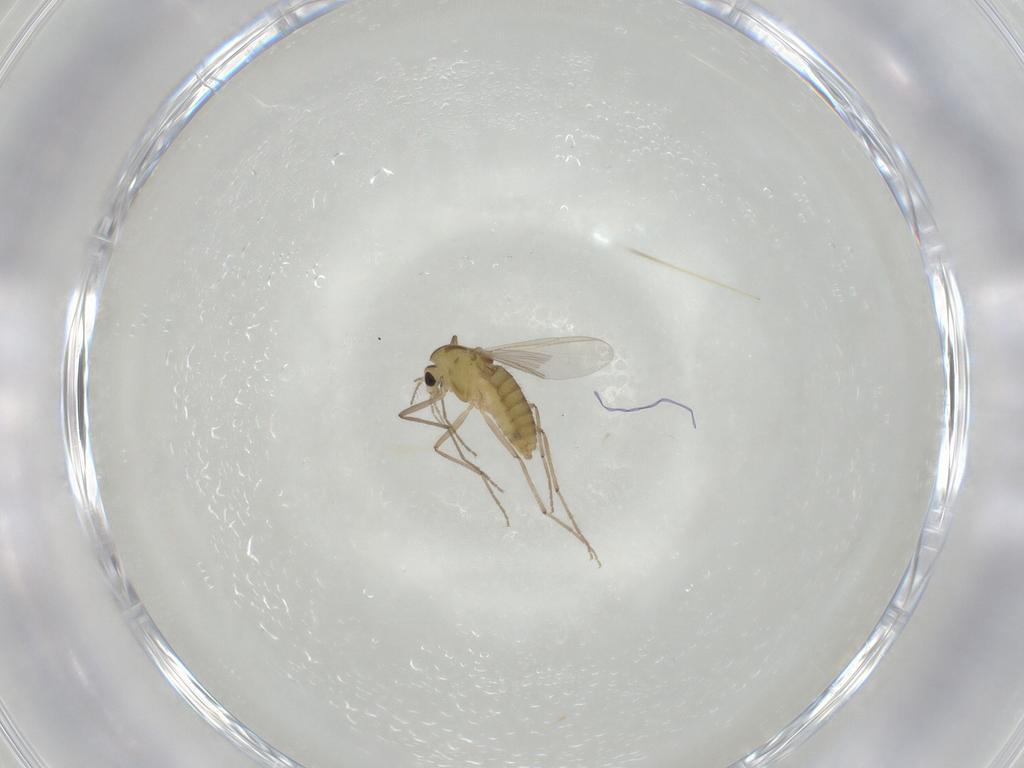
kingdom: Animalia
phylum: Arthropoda
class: Insecta
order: Diptera
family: Chironomidae
